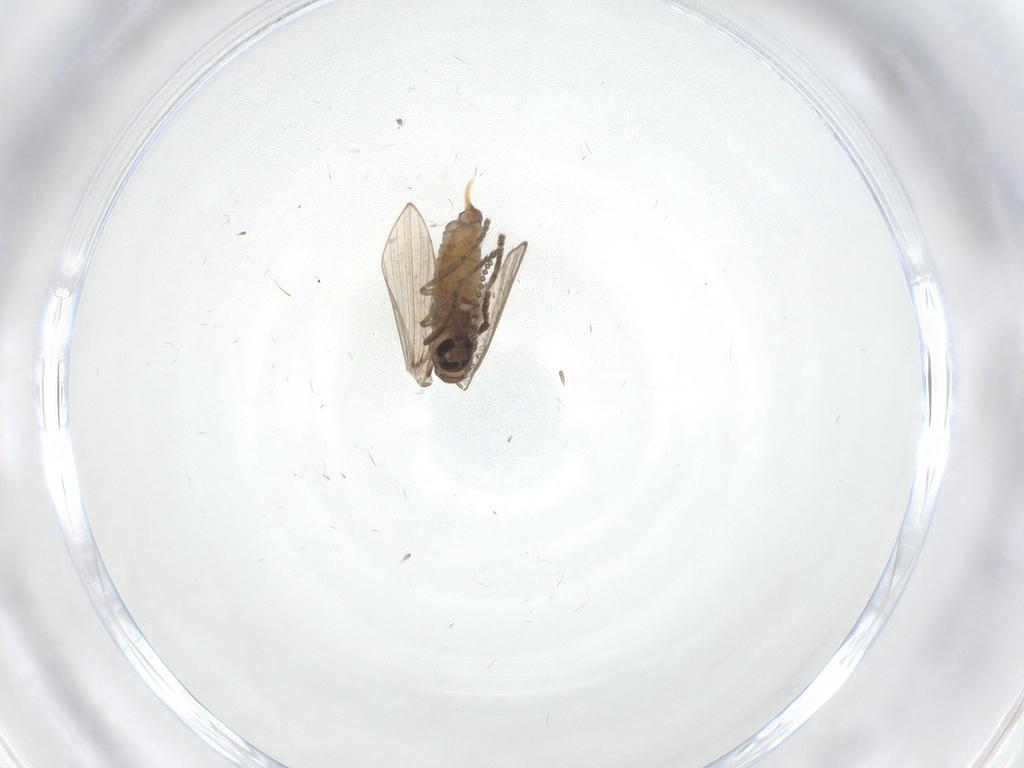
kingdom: Animalia
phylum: Arthropoda
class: Insecta
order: Diptera
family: Psychodidae
